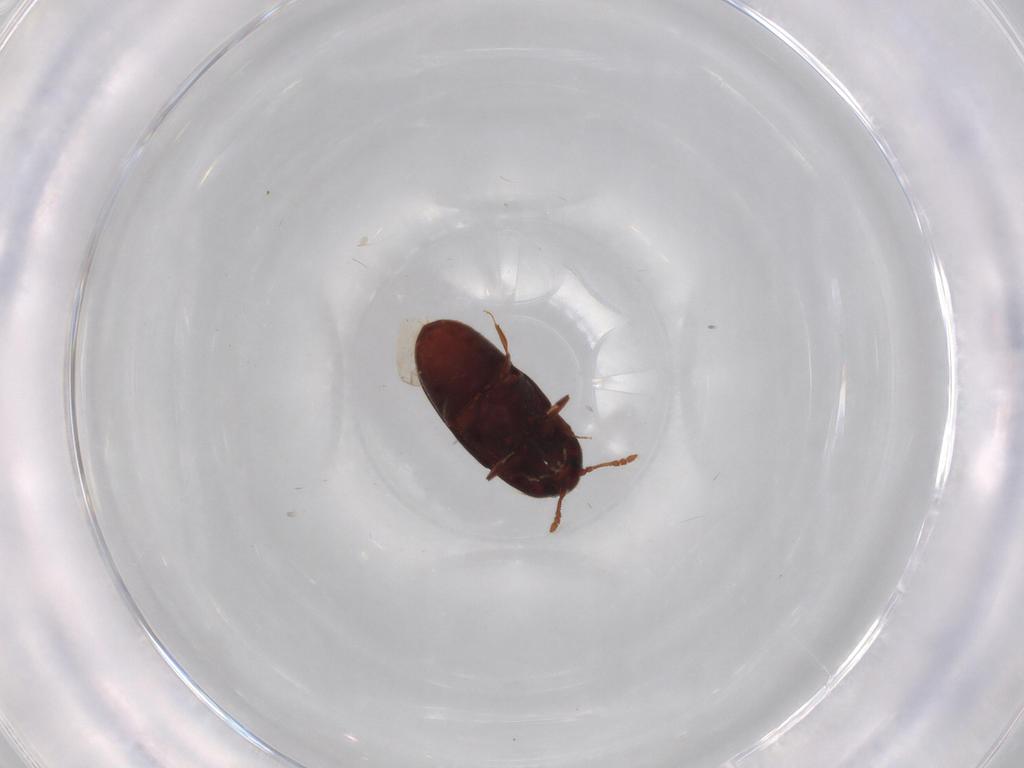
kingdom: Animalia
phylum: Arthropoda
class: Insecta
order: Coleoptera
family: Throscidae
